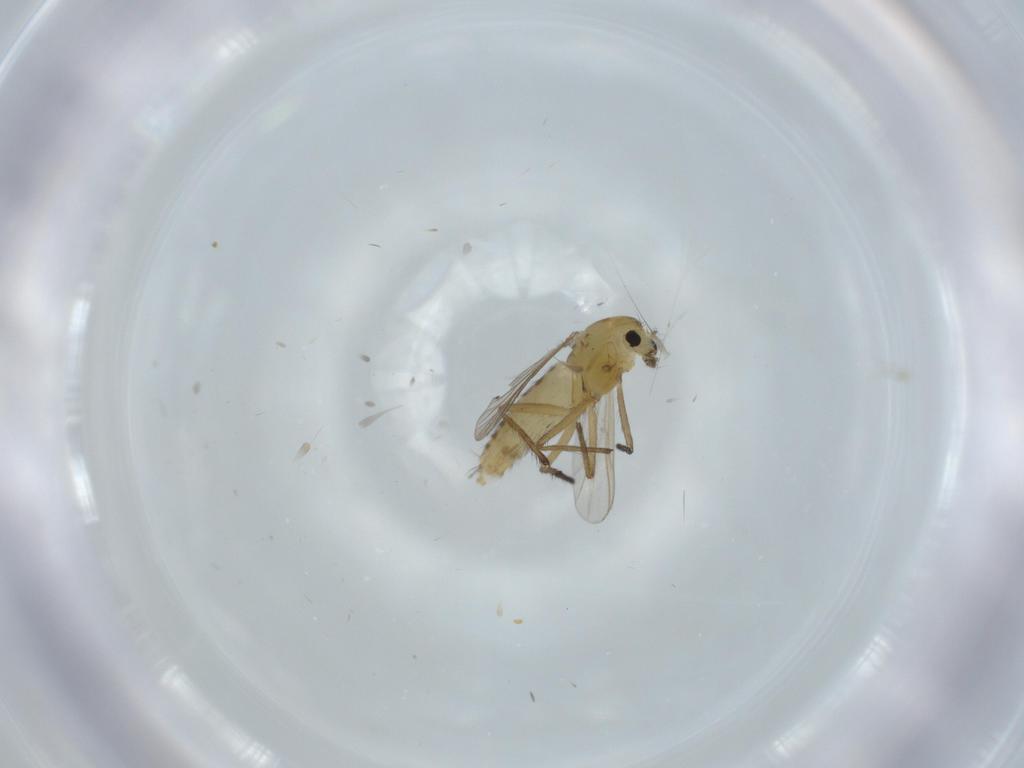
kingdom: Animalia
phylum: Arthropoda
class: Insecta
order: Diptera
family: Chironomidae
